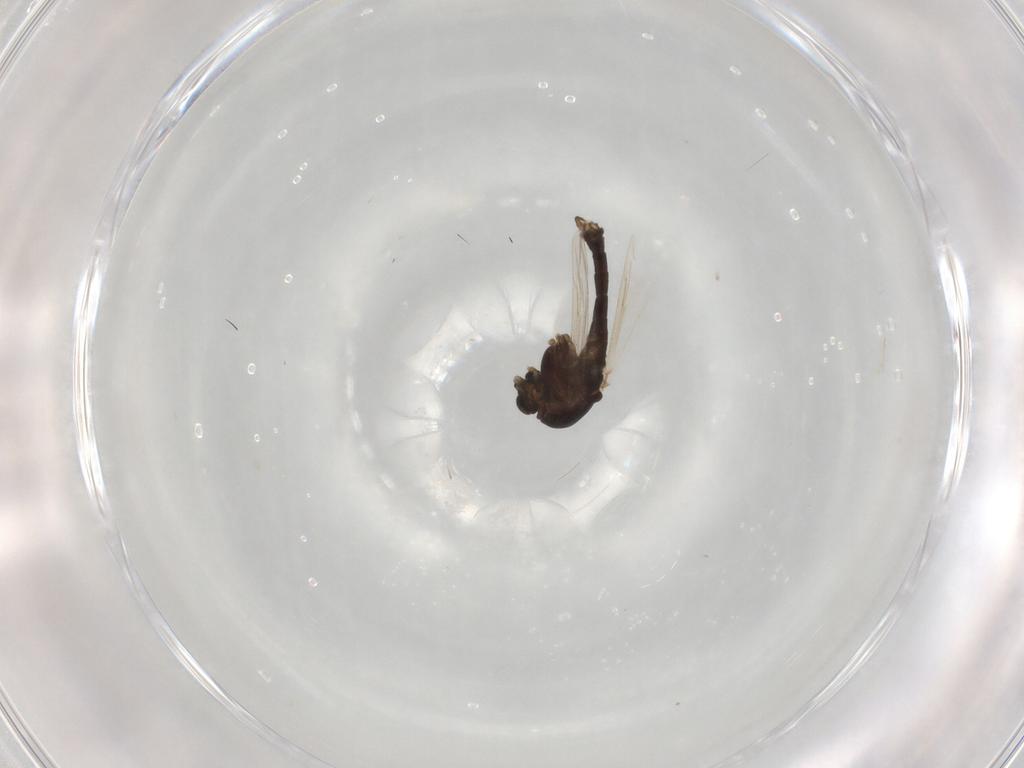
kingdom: Animalia
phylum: Arthropoda
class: Insecta
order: Diptera
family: Chironomidae
